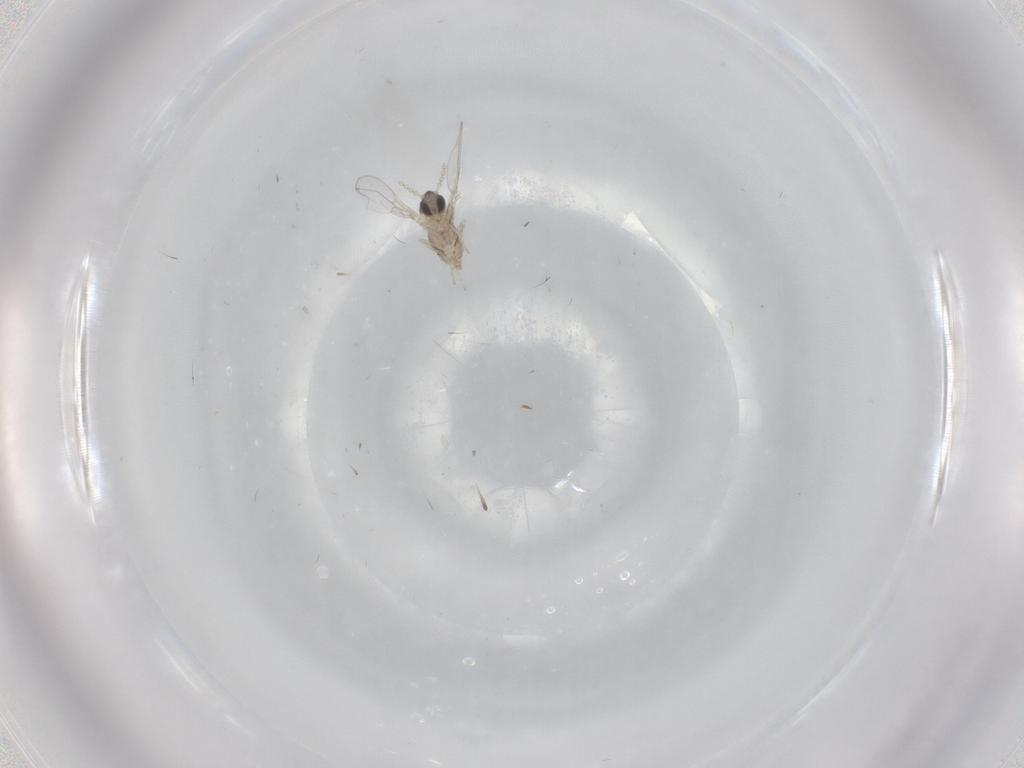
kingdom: Animalia
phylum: Arthropoda
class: Insecta
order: Diptera
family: Cecidomyiidae
